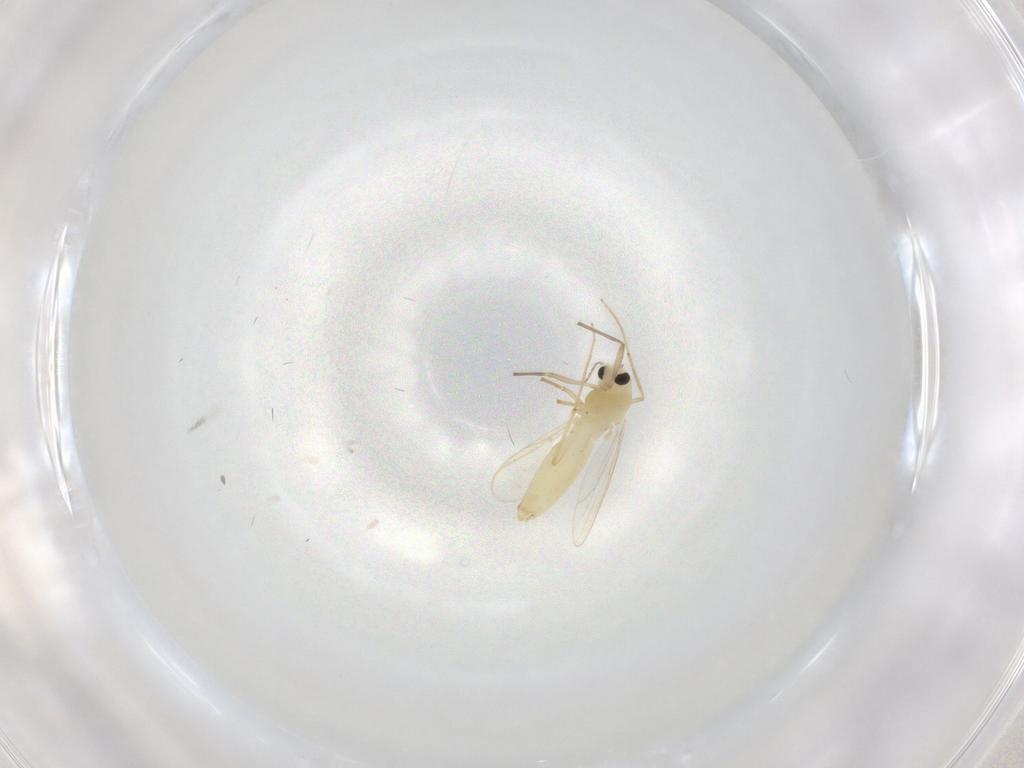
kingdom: Animalia
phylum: Arthropoda
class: Insecta
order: Diptera
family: Chironomidae
